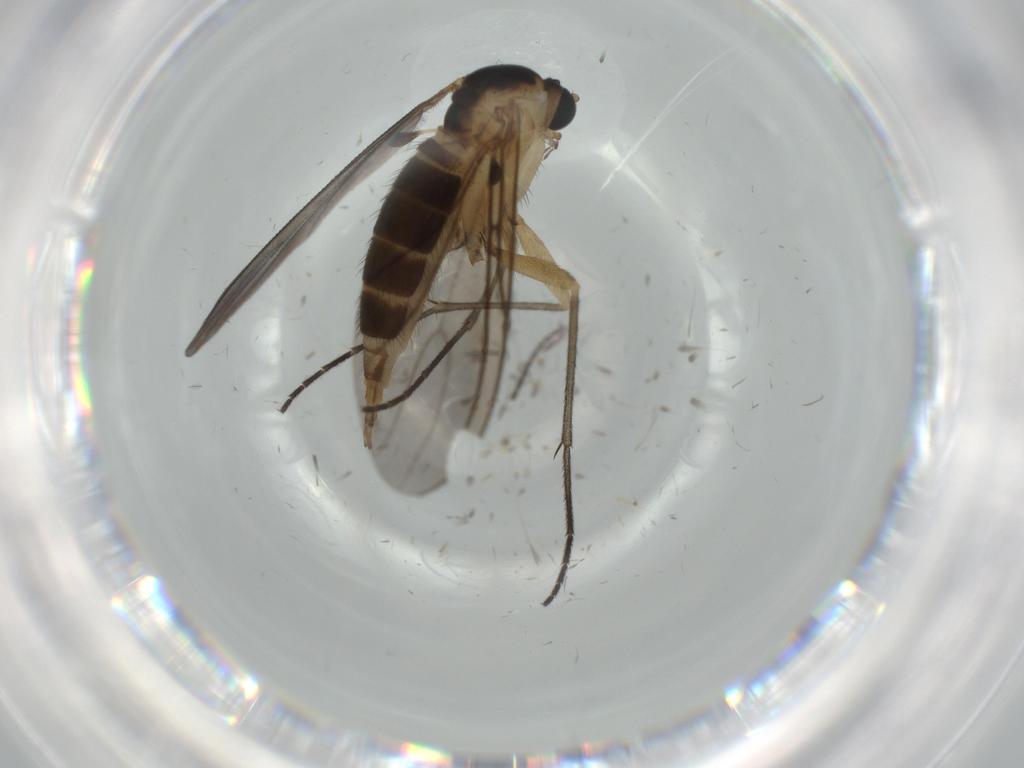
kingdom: Animalia
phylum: Arthropoda
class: Insecta
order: Diptera
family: Sciaridae
